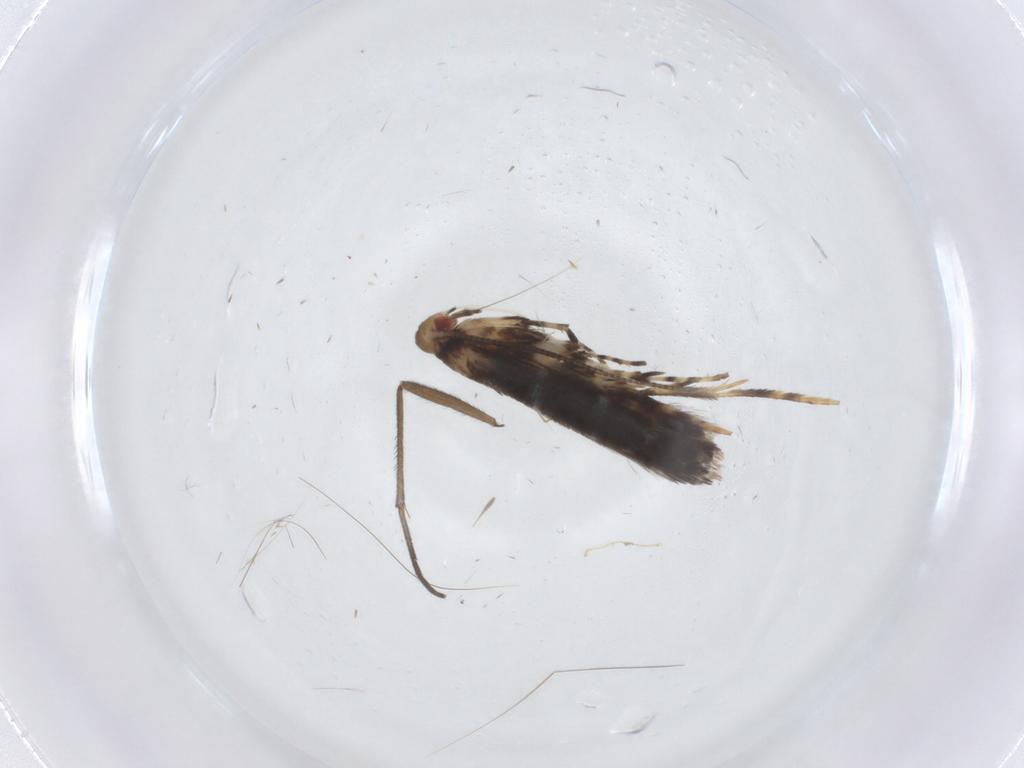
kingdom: Animalia
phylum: Arthropoda
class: Insecta
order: Lepidoptera
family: Gracillariidae
